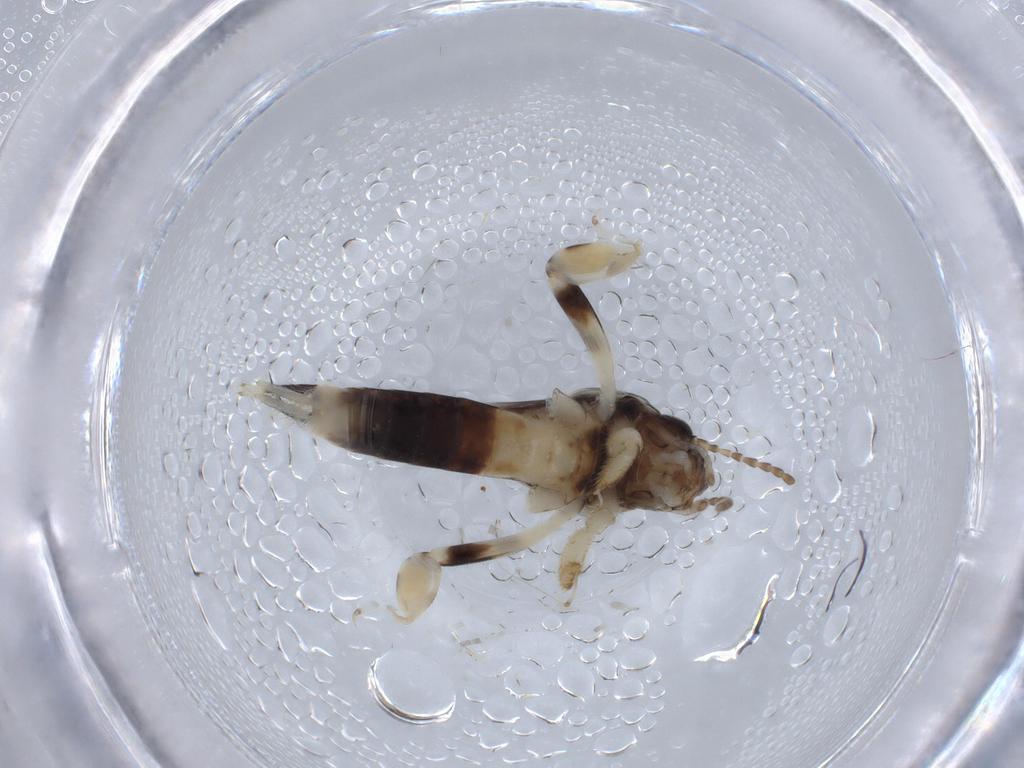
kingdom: Animalia
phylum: Arthropoda
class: Insecta
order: Orthoptera
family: Tridactylidae
